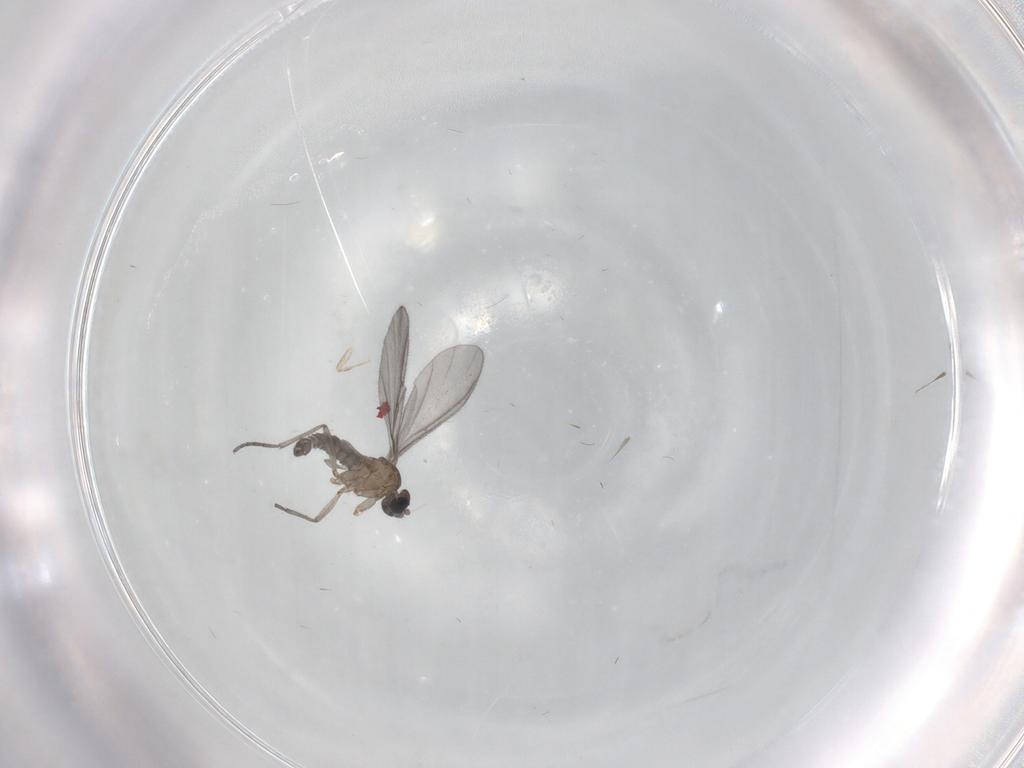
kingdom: Animalia
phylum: Arthropoda
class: Insecta
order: Diptera
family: Sciaridae
